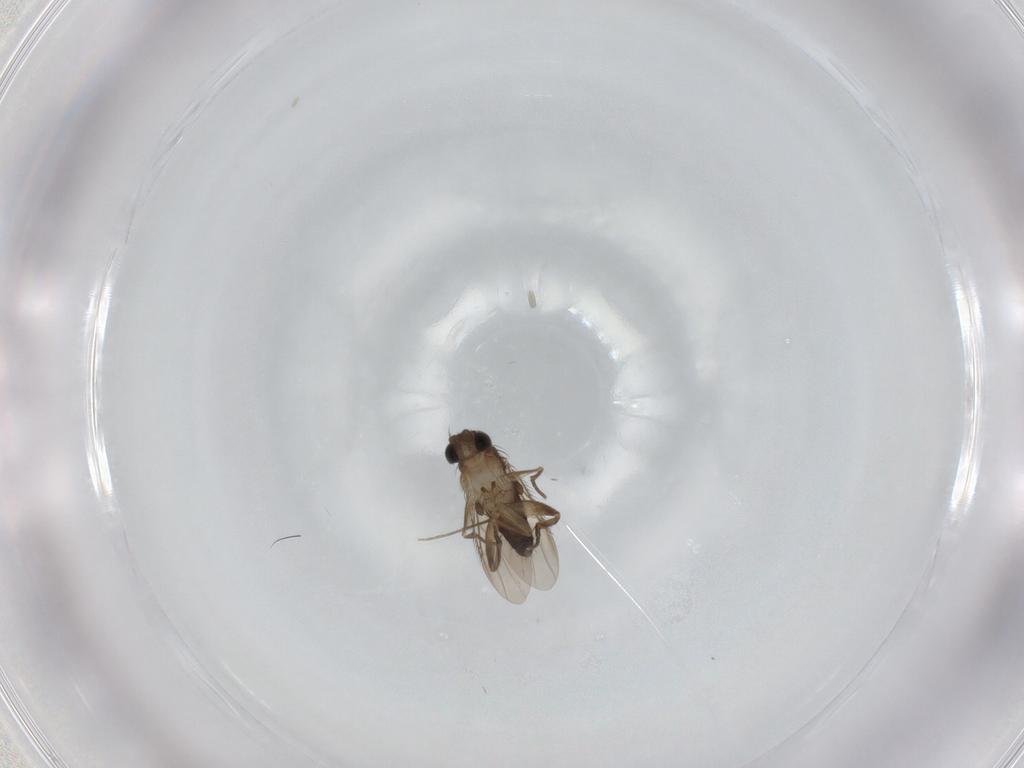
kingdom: Animalia
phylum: Arthropoda
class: Insecta
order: Diptera
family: Phoridae
